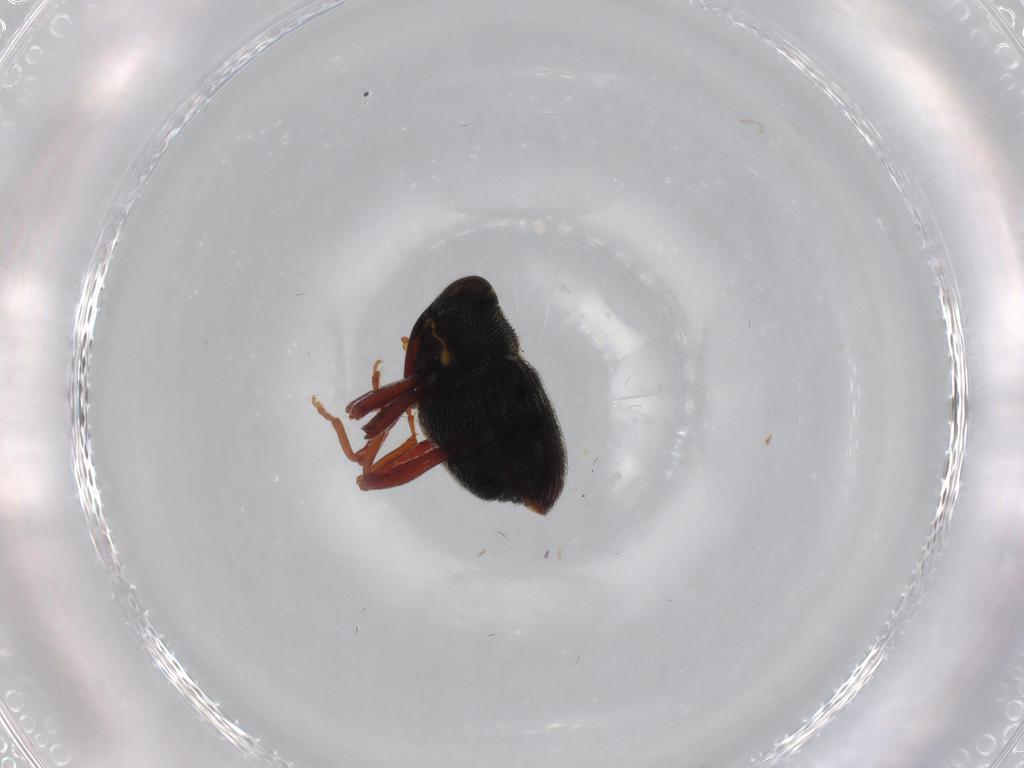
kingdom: Animalia
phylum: Arthropoda
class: Insecta
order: Coleoptera
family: Curculionidae
